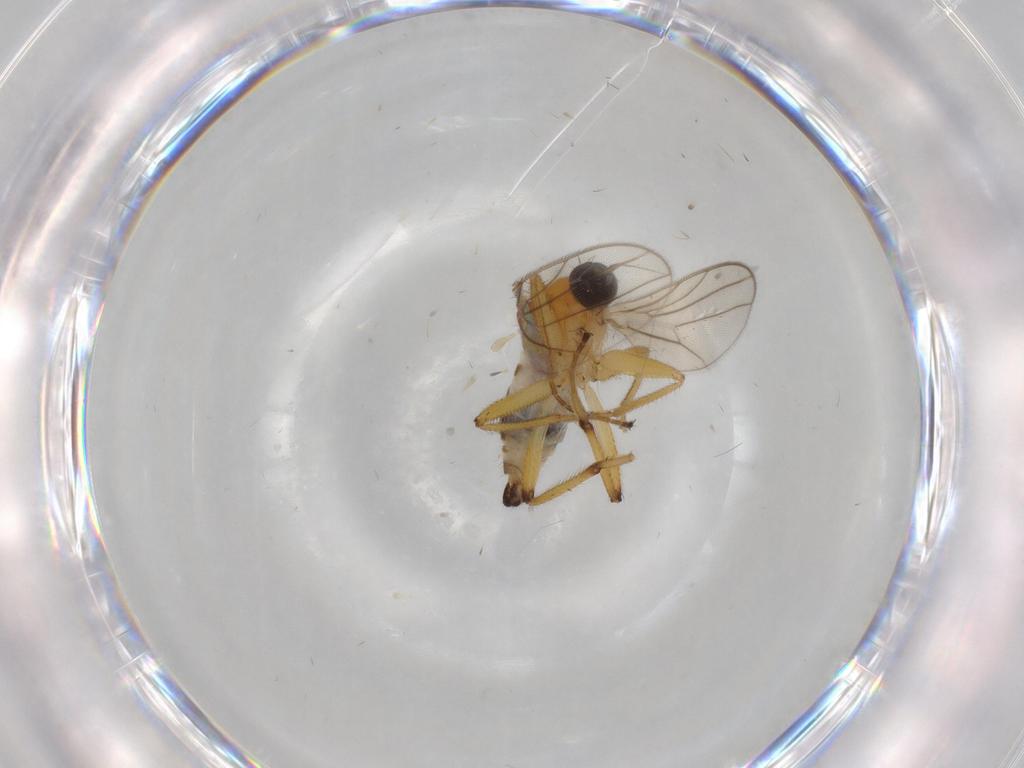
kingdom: Animalia
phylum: Arthropoda
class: Insecta
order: Diptera
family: Hybotidae
